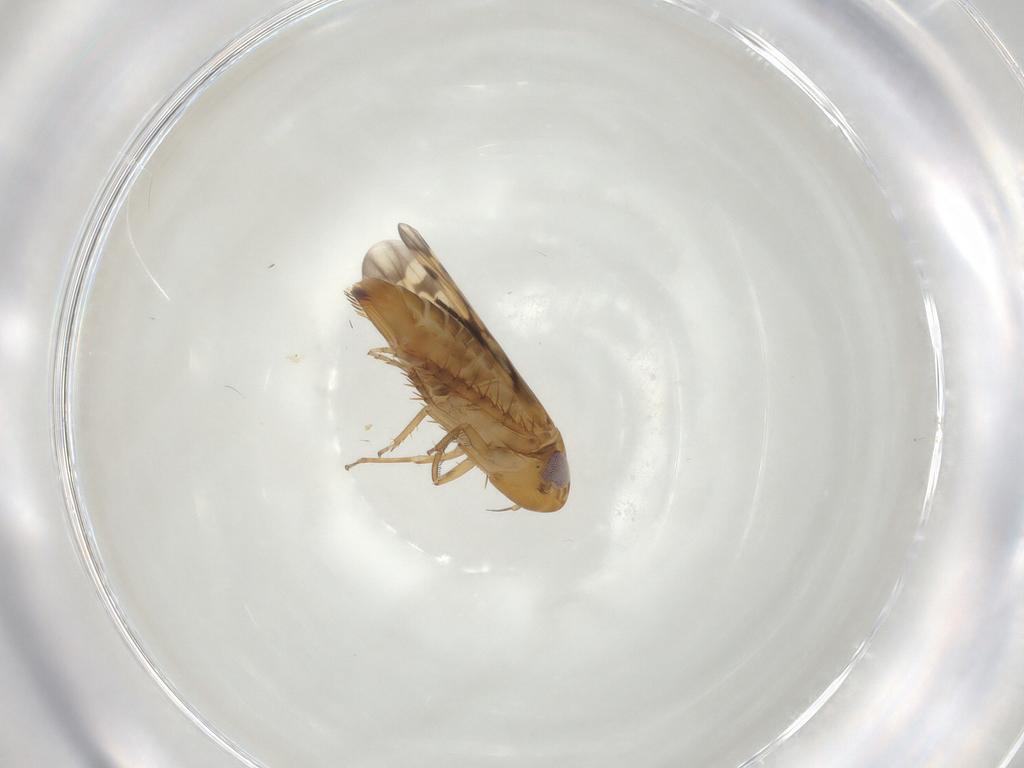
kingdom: Animalia
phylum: Arthropoda
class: Insecta
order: Hemiptera
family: Cicadellidae
